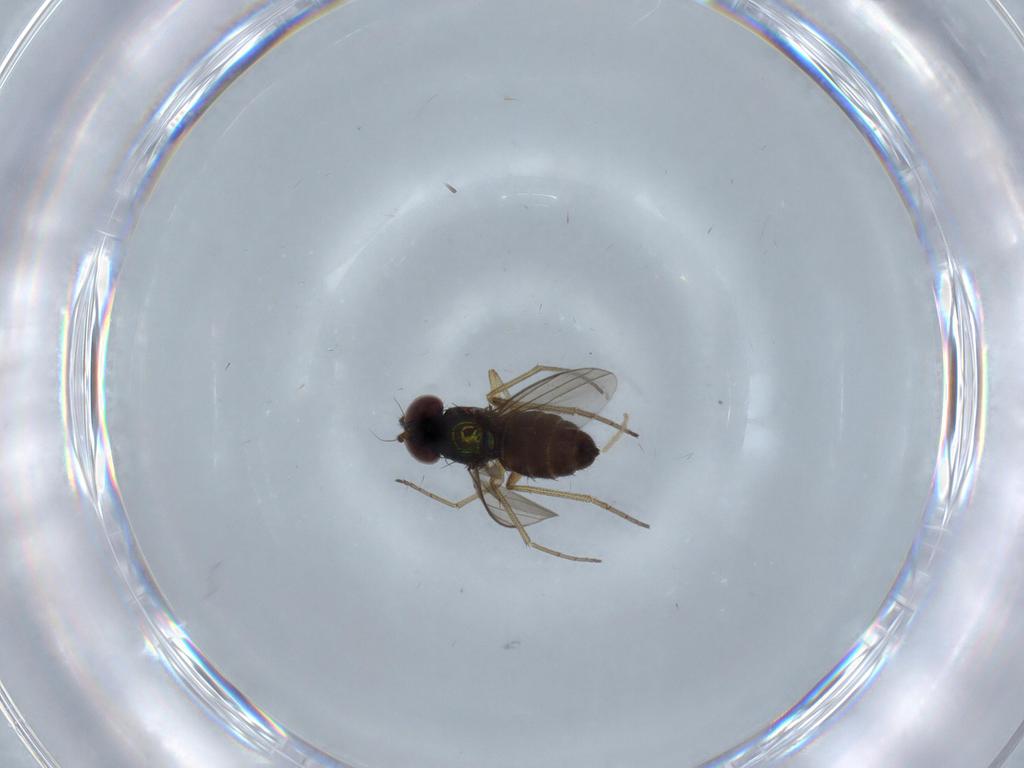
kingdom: Animalia
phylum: Arthropoda
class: Insecta
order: Diptera
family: Dolichopodidae
